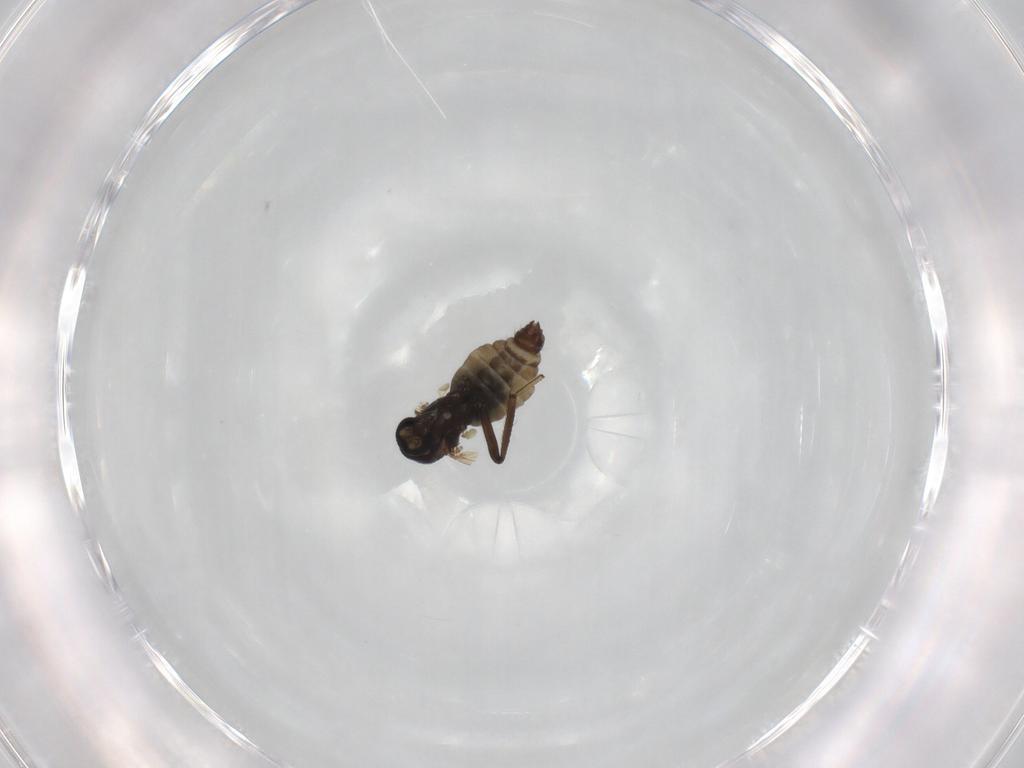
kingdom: Animalia
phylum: Arthropoda
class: Insecta
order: Diptera
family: Ceratopogonidae
